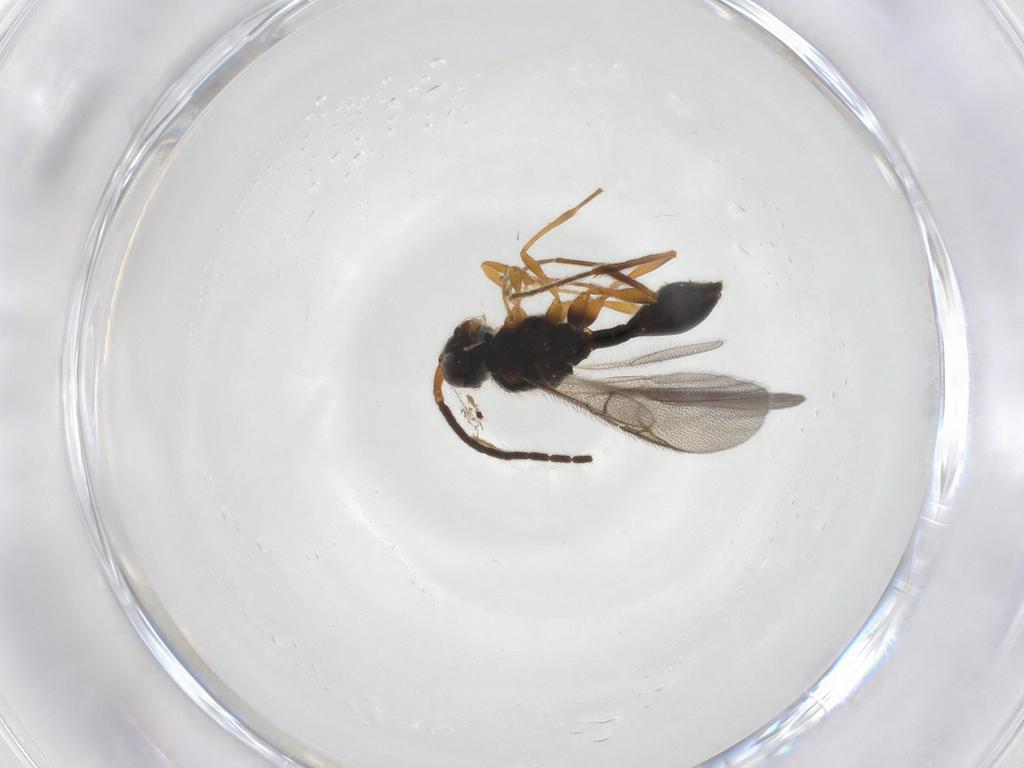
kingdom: Animalia
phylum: Arthropoda
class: Insecta
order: Hymenoptera
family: Diapriidae
